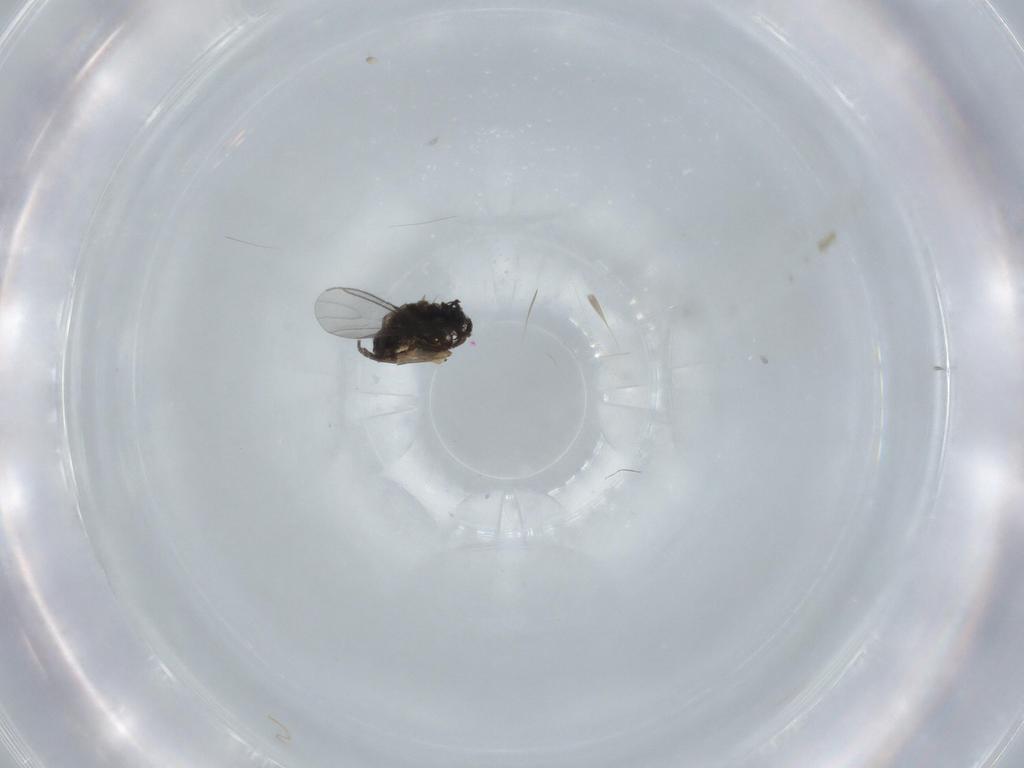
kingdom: Animalia
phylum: Arthropoda
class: Insecta
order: Diptera
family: Sciaridae
